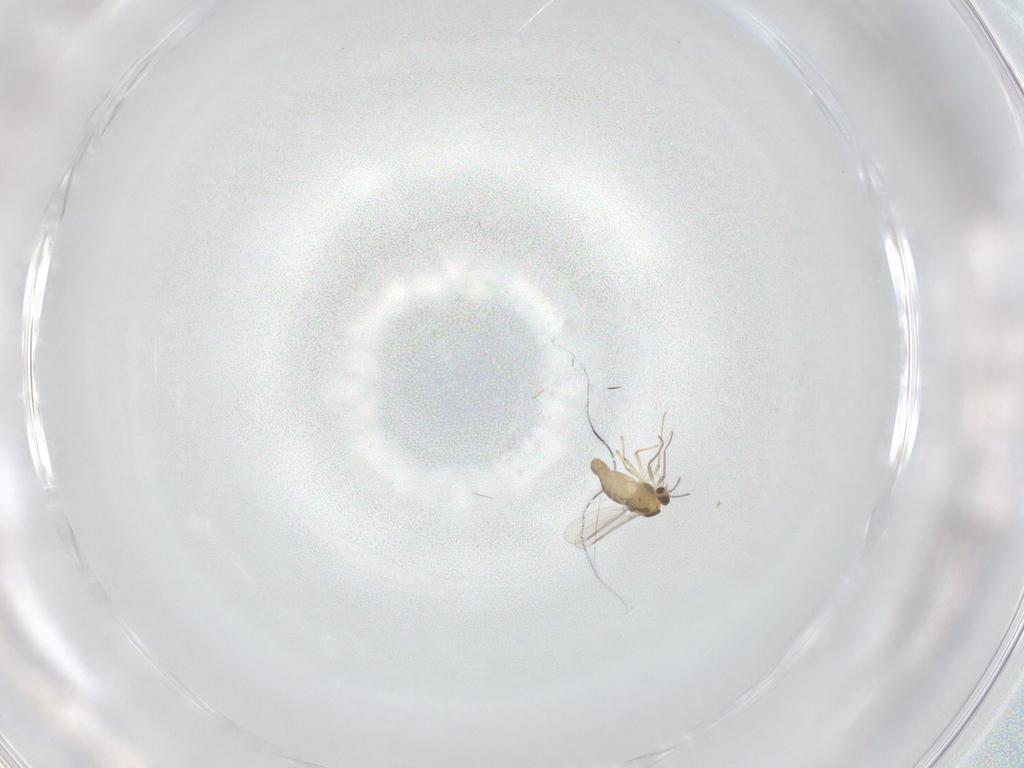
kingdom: Animalia
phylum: Arthropoda
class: Insecta
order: Diptera
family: Chironomidae
